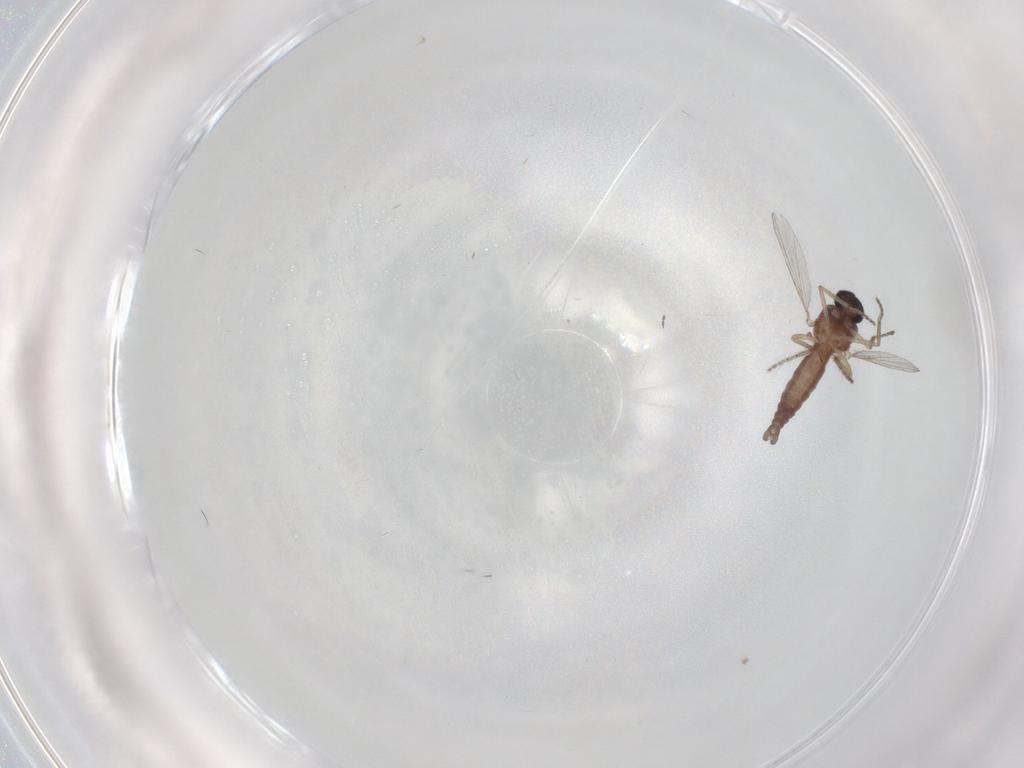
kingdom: Animalia
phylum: Arthropoda
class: Insecta
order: Diptera
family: Ceratopogonidae
